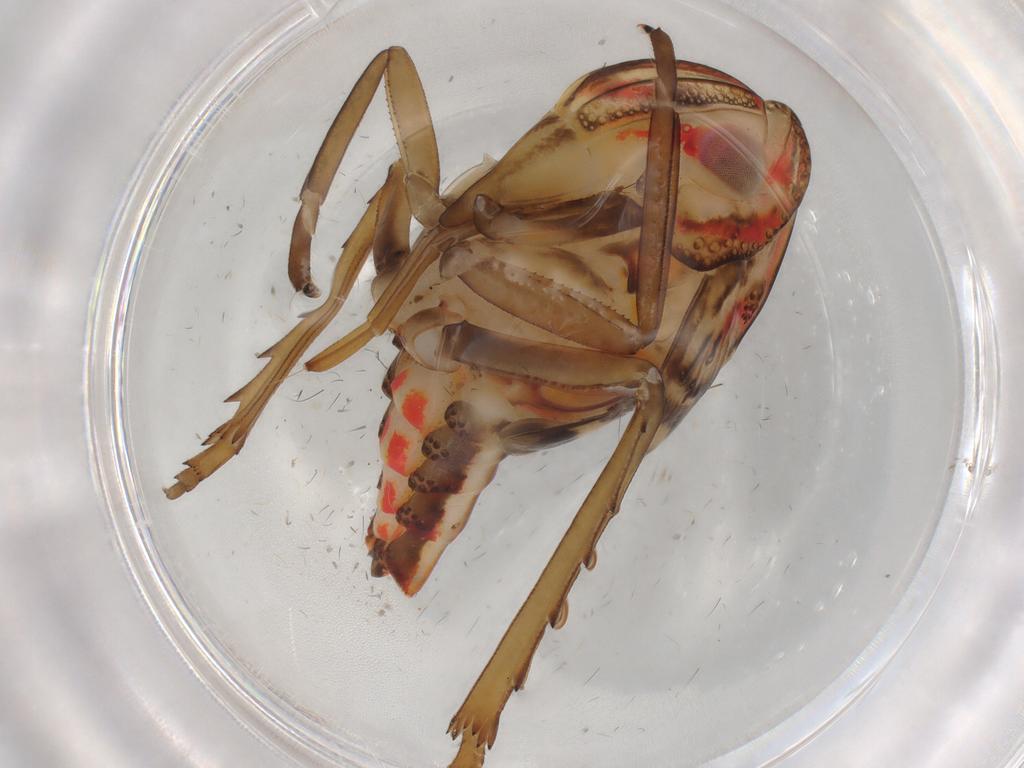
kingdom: Animalia
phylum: Arthropoda
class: Insecta
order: Hemiptera
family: Nogodinidae
